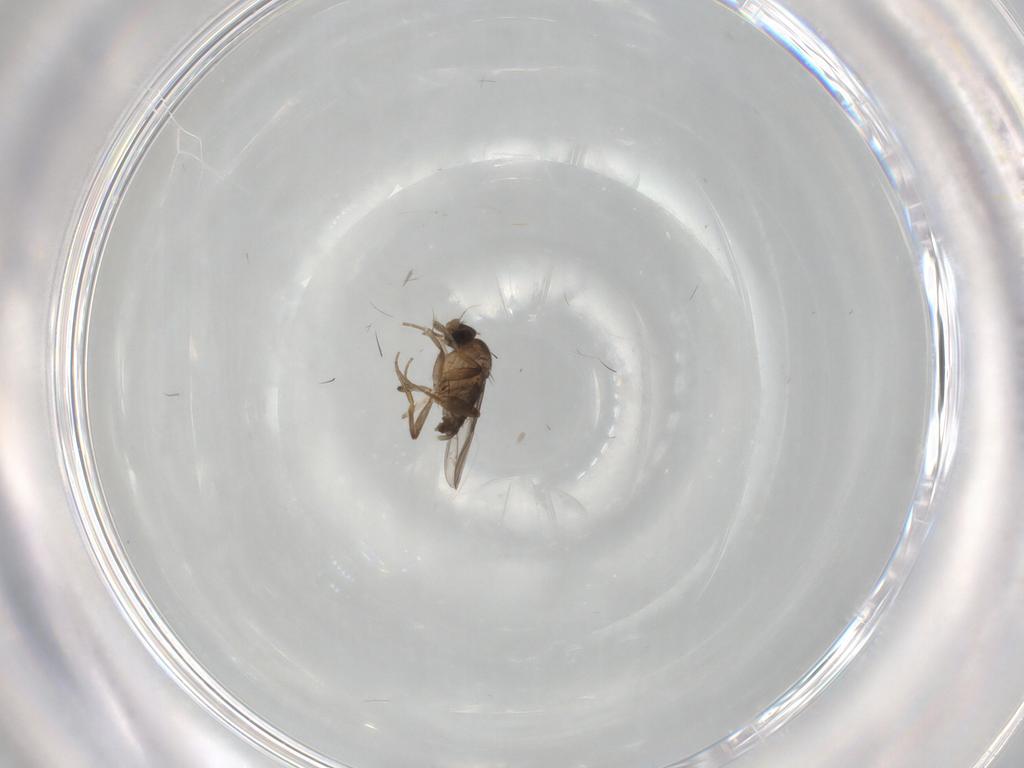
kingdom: Animalia
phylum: Arthropoda
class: Insecta
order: Diptera
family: Phoridae
